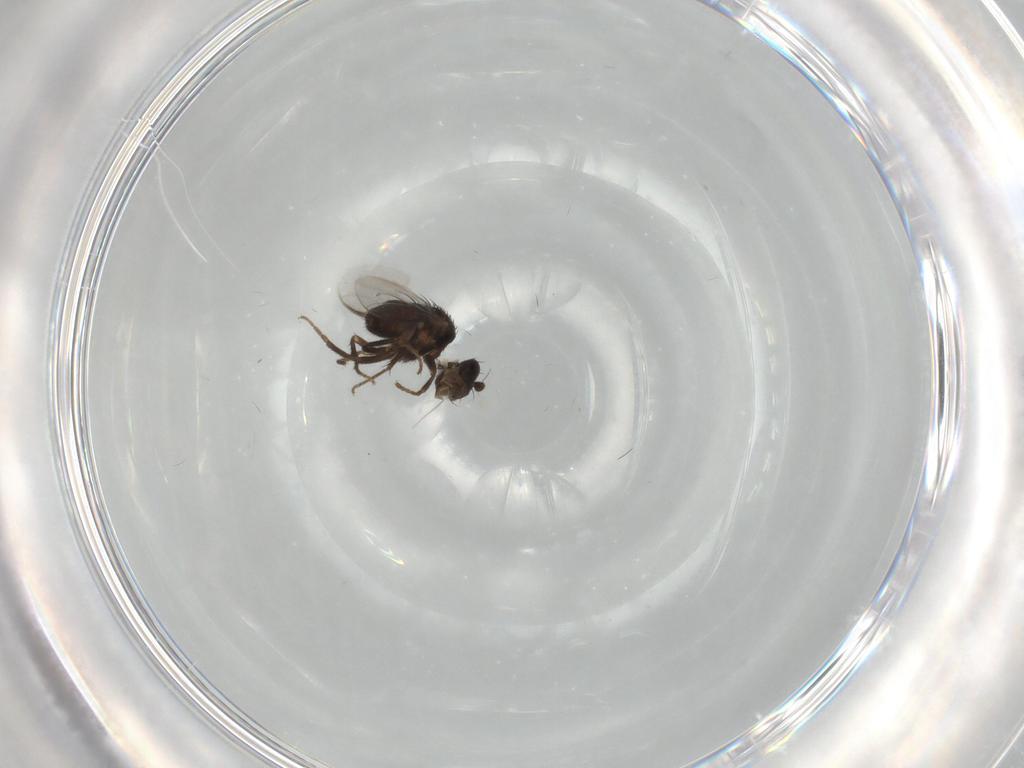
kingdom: Animalia
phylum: Arthropoda
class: Insecta
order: Diptera
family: Sphaeroceridae
